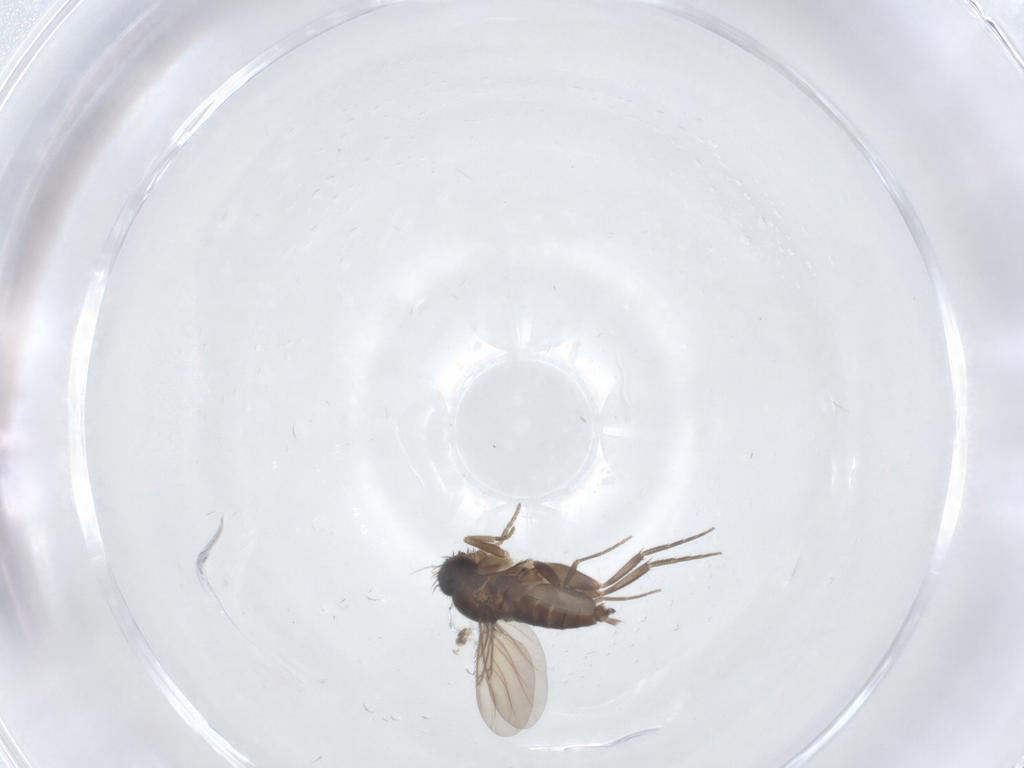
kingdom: Animalia
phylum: Arthropoda
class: Insecta
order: Diptera
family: Phoridae
